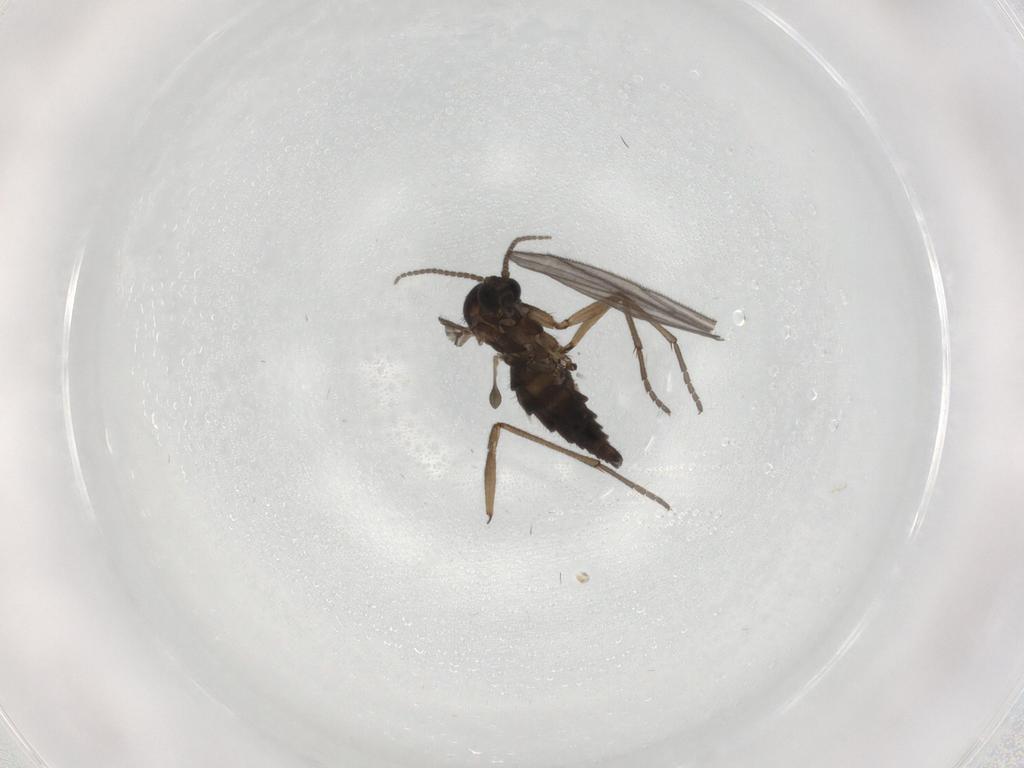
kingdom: Animalia
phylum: Arthropoda
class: Insecta
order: Diptera
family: Sciaridae
